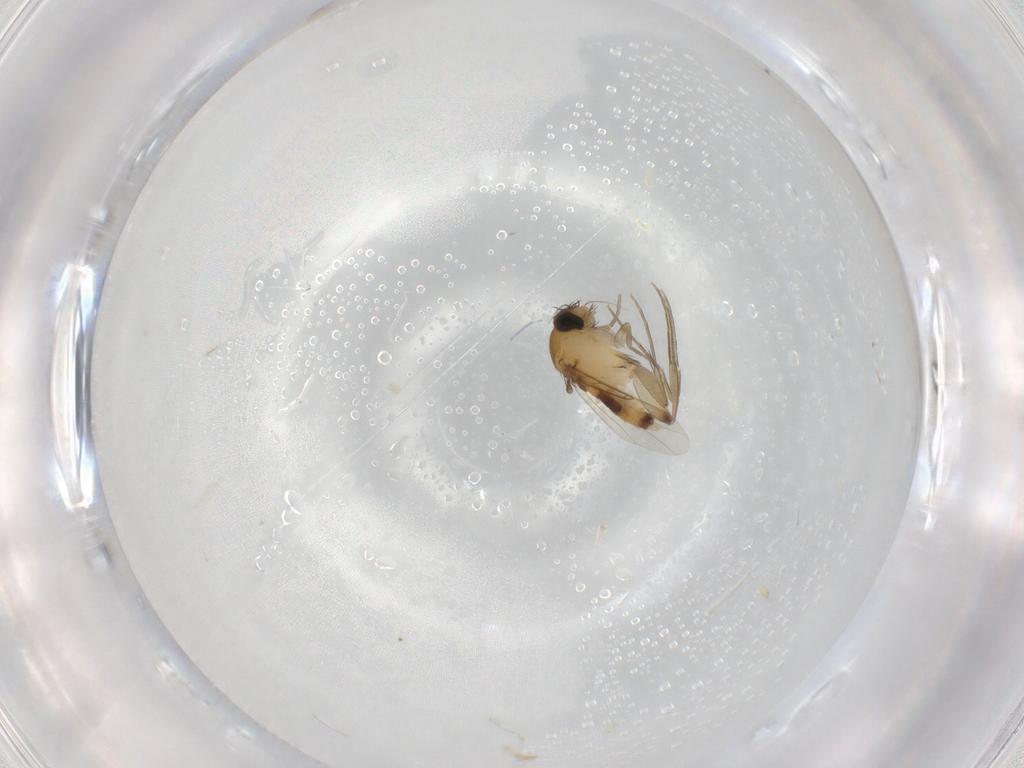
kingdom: Animalia
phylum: Arthropoda
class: Insecta
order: Diptera
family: Phoridae
